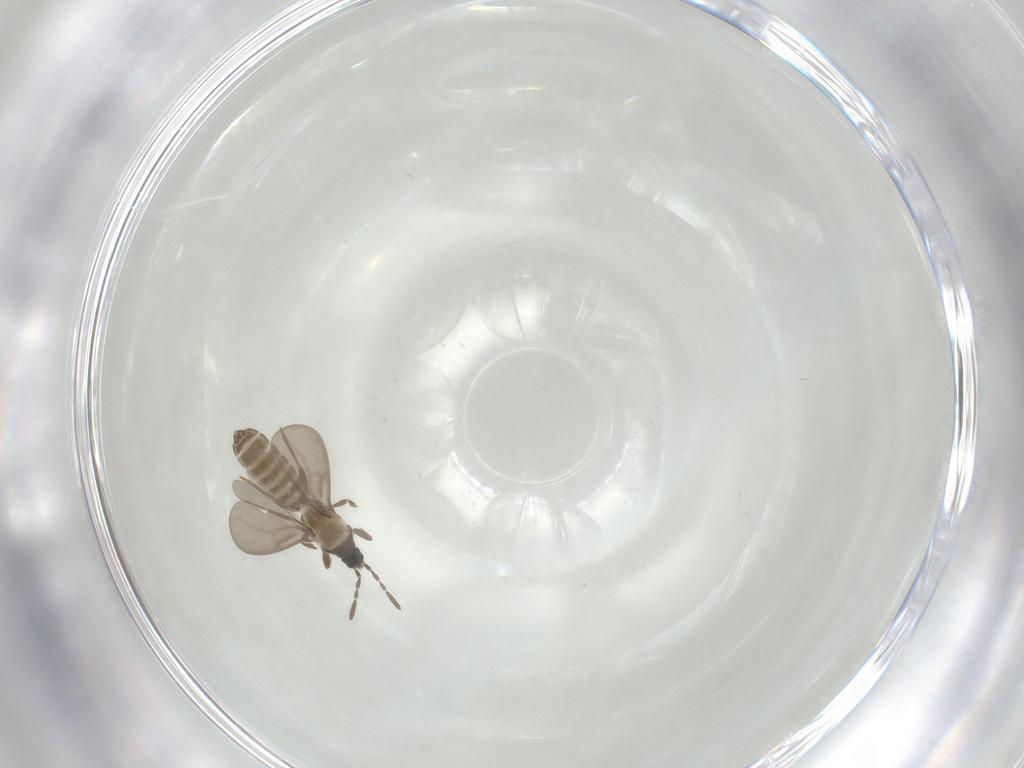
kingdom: Animalia
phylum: Arthropoda
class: Insecta
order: Hemiptera
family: Enicocephalidae
